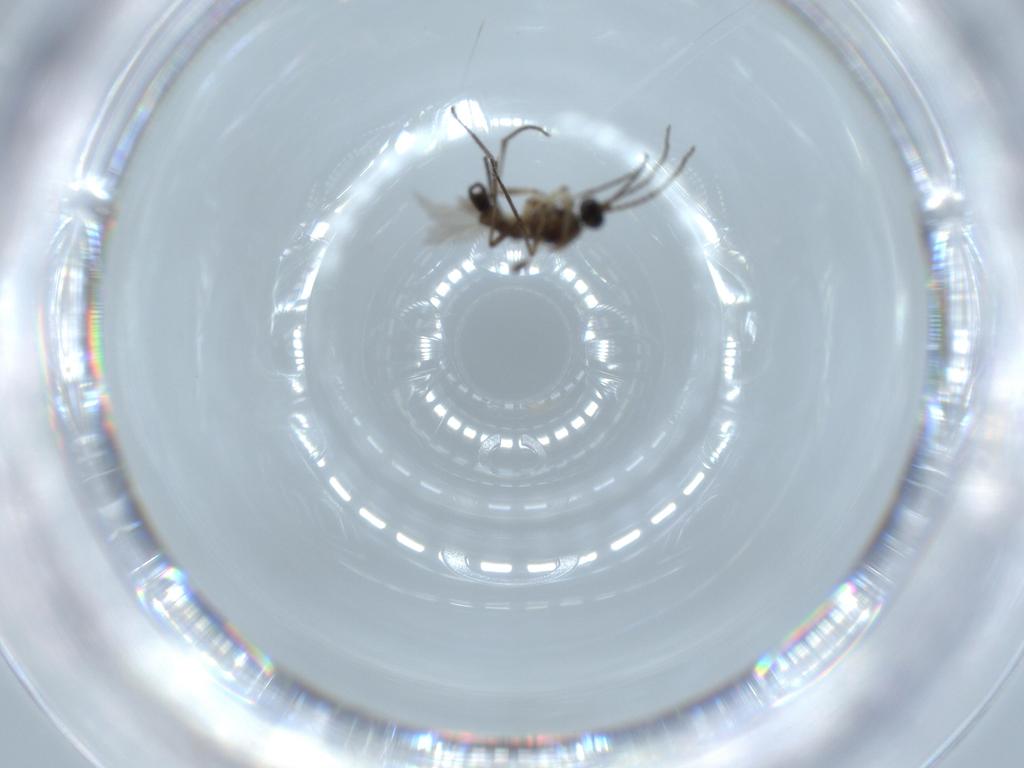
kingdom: Animalia
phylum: Arthropoda
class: Insecta
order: Diptera
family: Sciaridae
